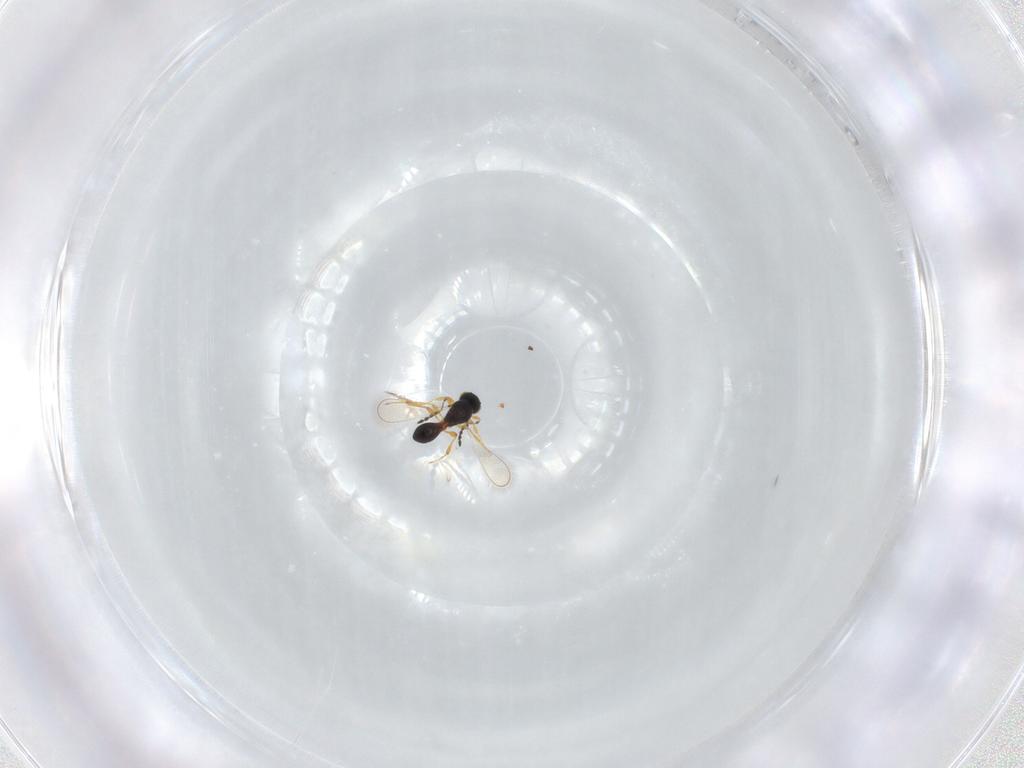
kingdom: Animalia
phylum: Arthropoda
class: Insecta
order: Hymenoptera
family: Platygastridae
